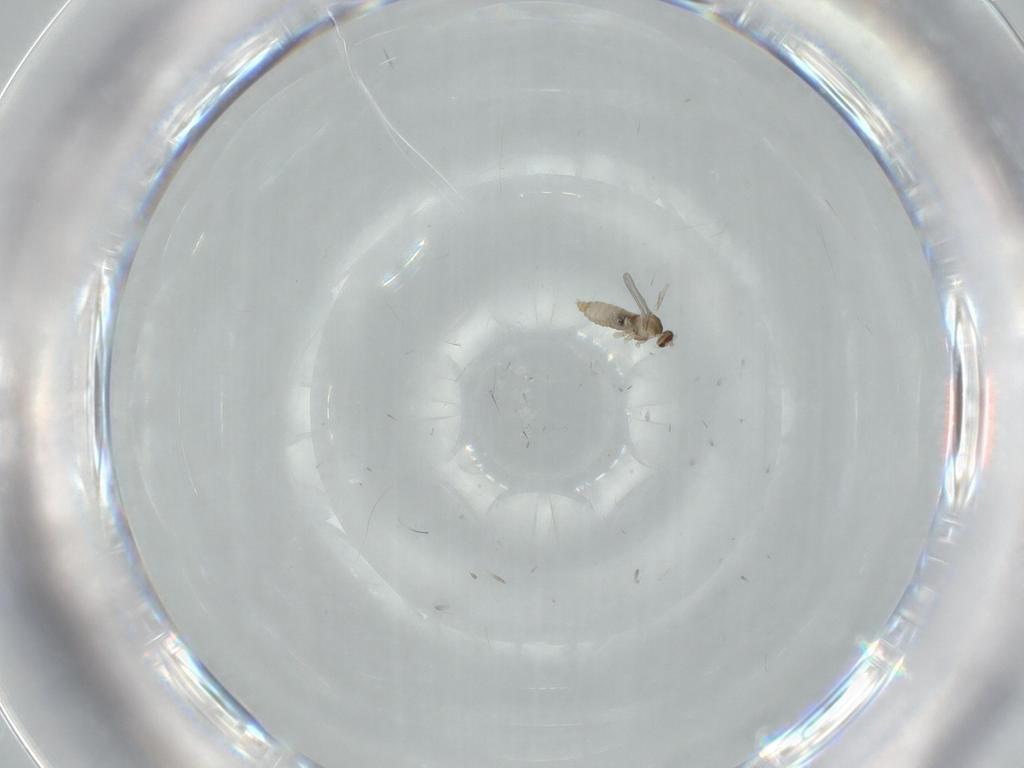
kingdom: Animalia
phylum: Arthropoda
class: Insecta
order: Diptera
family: Cecidomyiidae
